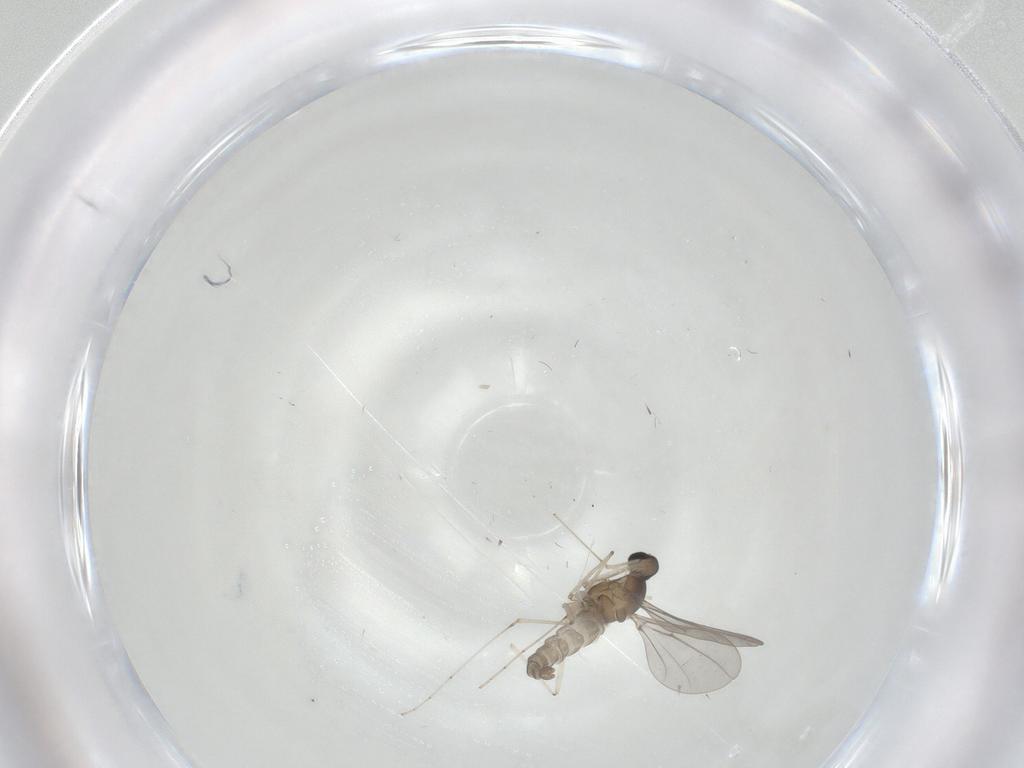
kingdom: Animalia
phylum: Arthropoda
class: Insecta
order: Diptera
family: Cecidomyiidae
